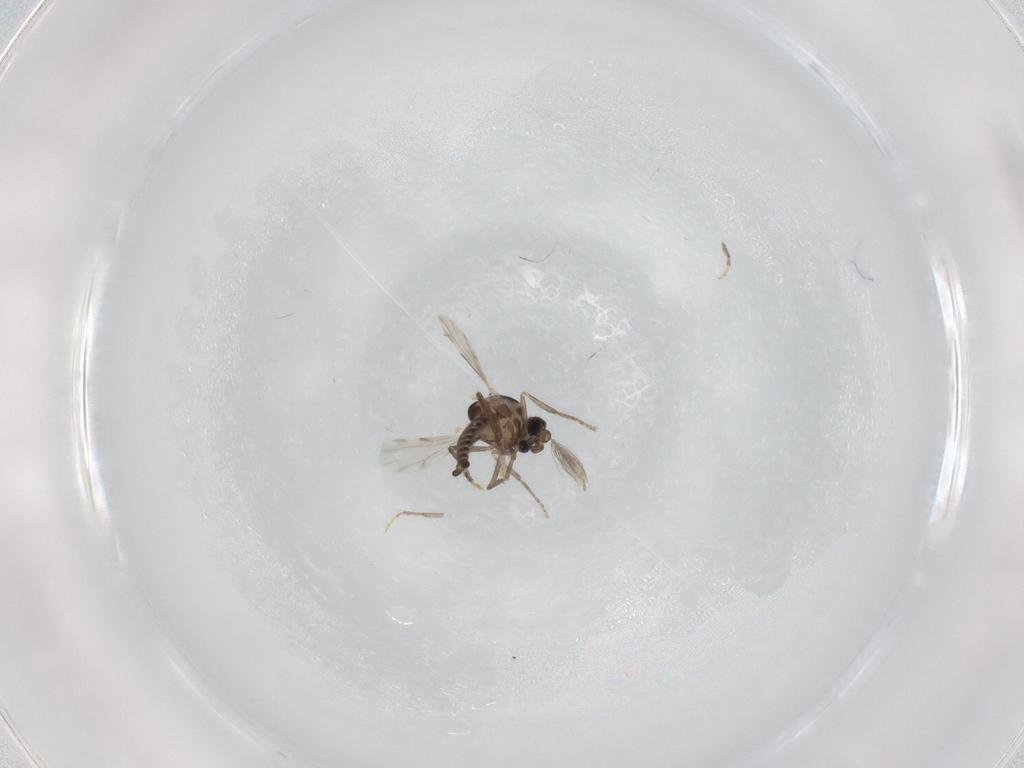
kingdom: Animalia
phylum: Arthropoda
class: Insecta
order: Diptera
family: Ceratopogonidae
